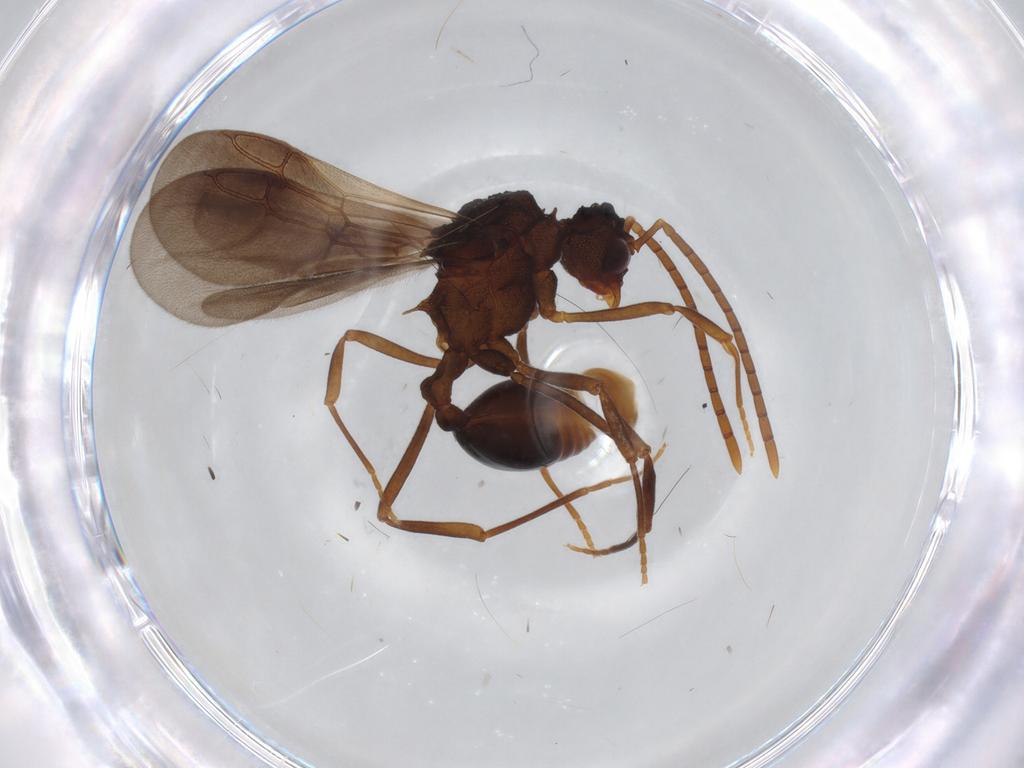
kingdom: Animalia
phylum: Arthropoda
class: Insecta
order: Hymenoptera
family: Formicidae
